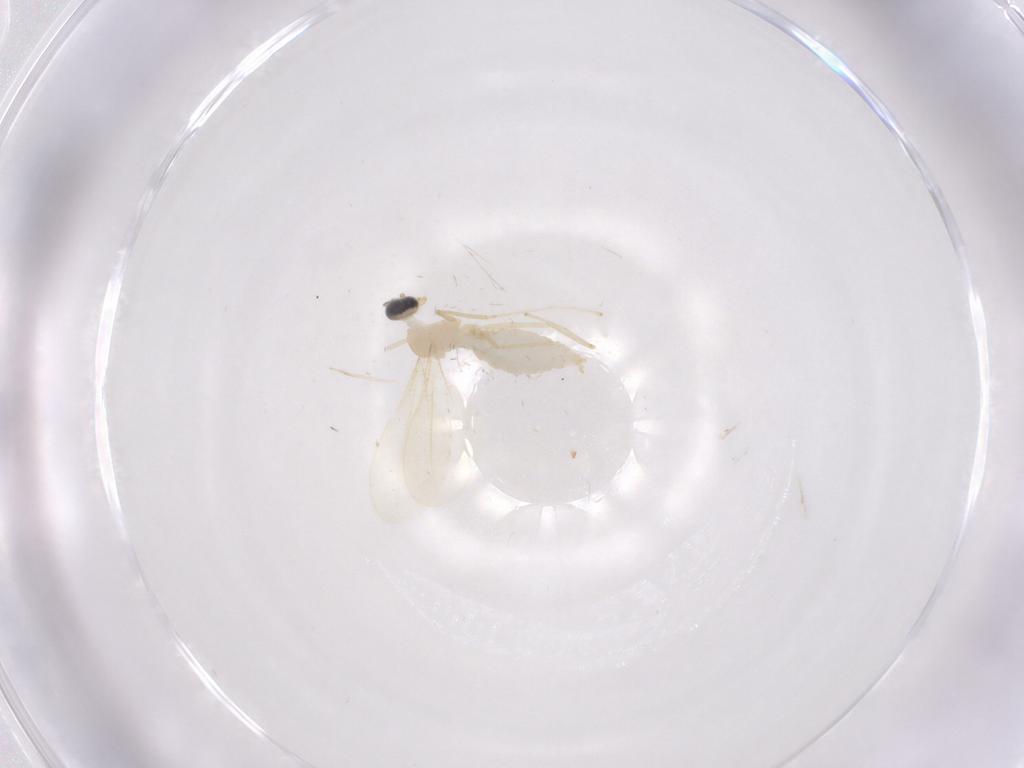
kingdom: Animalia
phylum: Arthropoda
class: Insecta
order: Diptera
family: Cecidomyiidae
